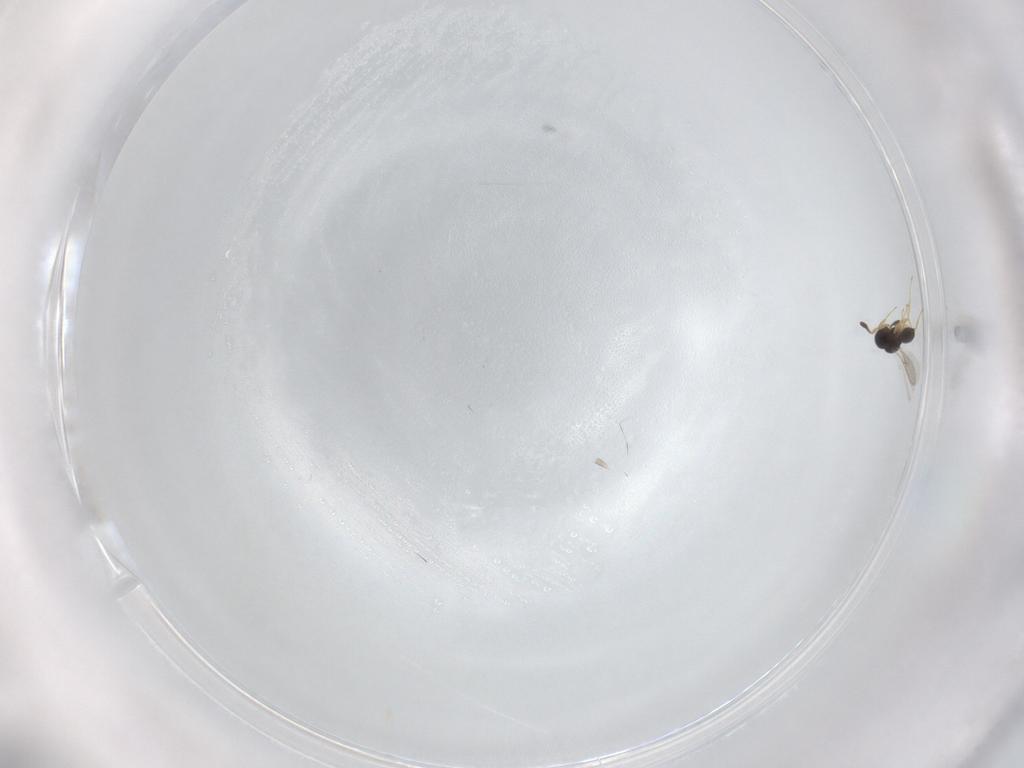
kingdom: Animalia
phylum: Arthropoda
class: Insecta
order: Hymenoptera
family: Scelionidae
